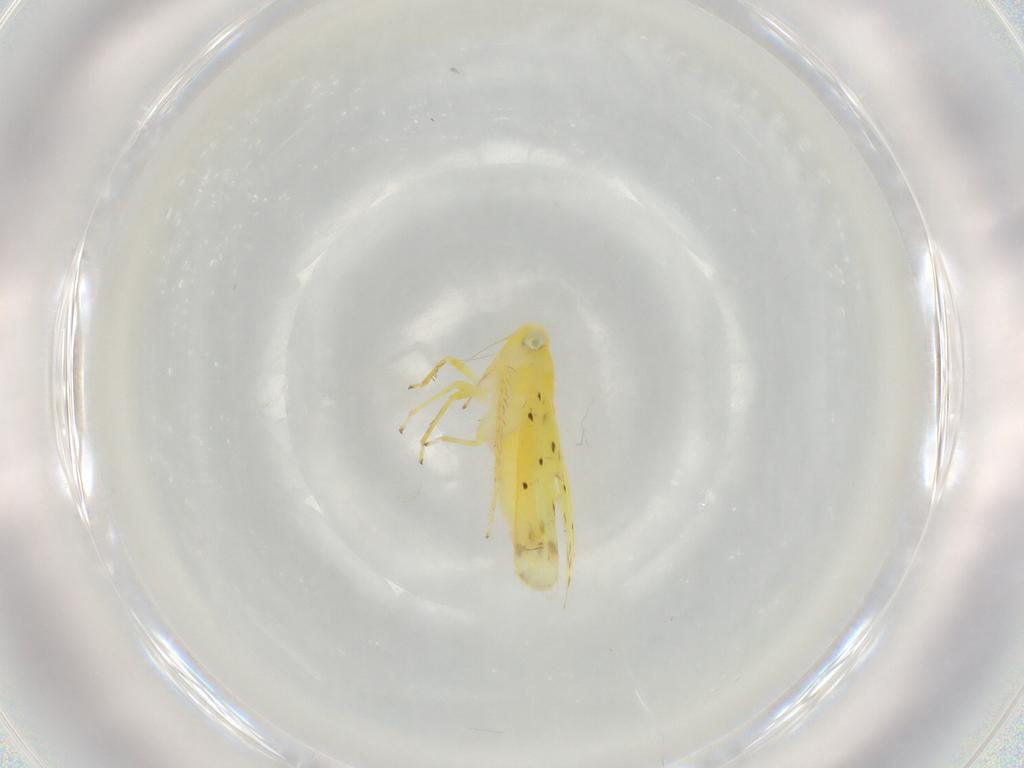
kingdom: Animalia
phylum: Arthropoda
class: Insecta
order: Hemiptera
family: Cicadellidae
